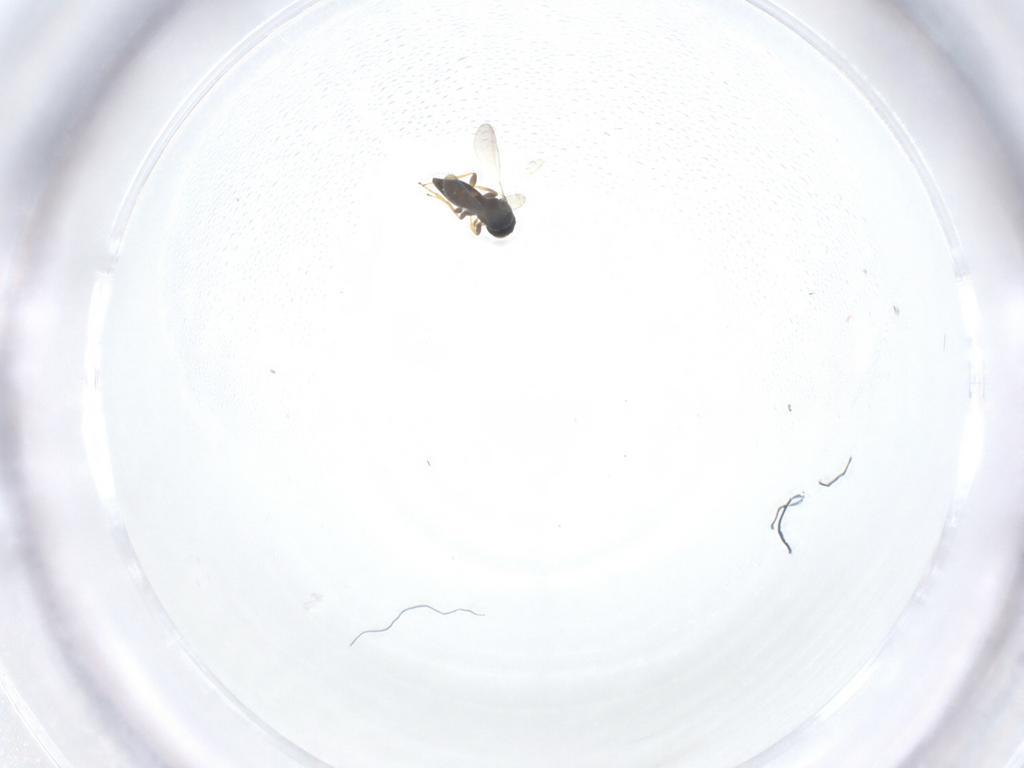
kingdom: Animalia
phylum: Arthropoda
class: Insecta
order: Hymenoptera
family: Platygastridae
